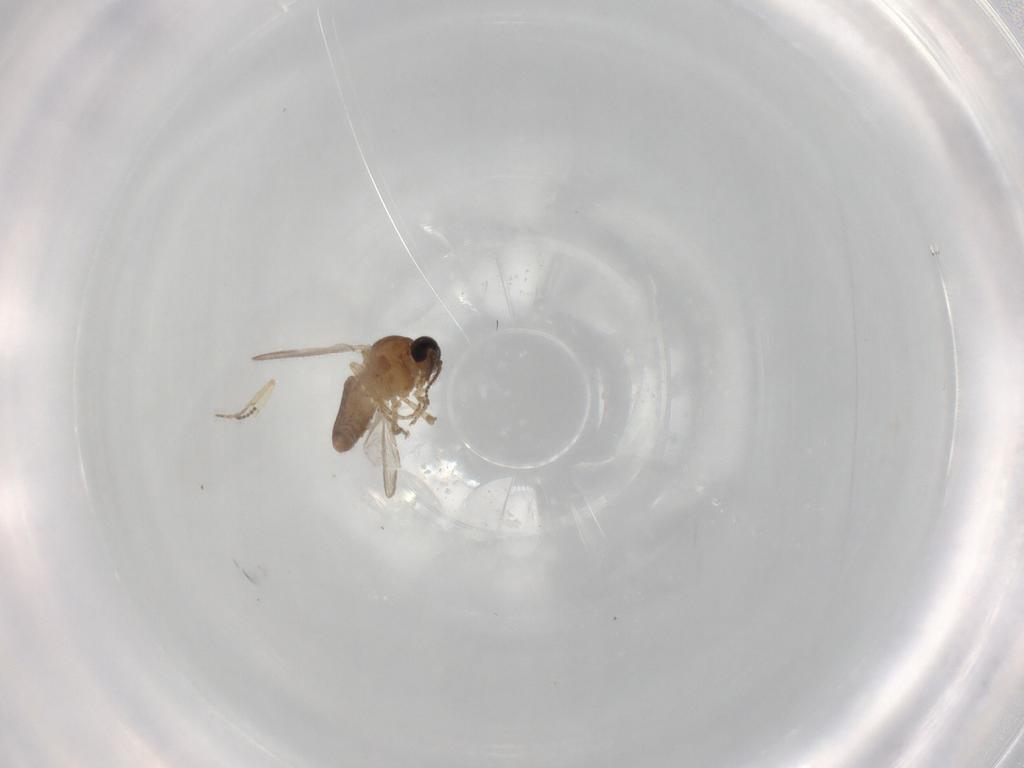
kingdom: Animalia
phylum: Arthropoda
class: Insecta
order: Diptera
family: Ceratopogonidae
